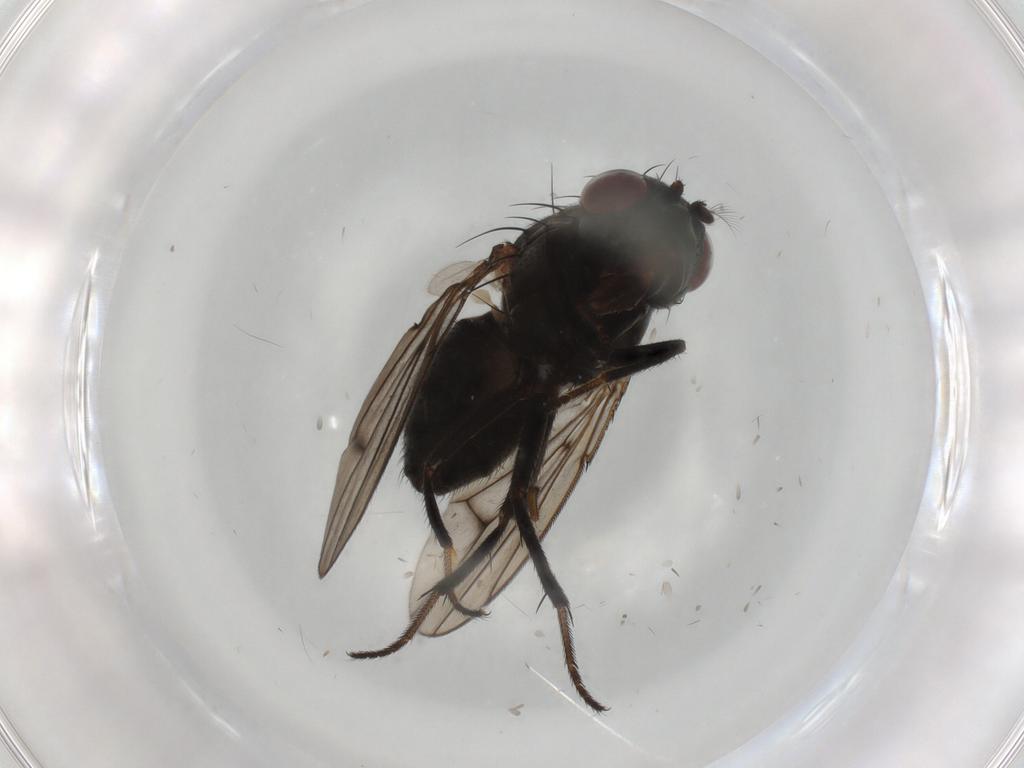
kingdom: Animalia
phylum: Arthropoda
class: Insecta
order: Diptera
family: Ephydridae
